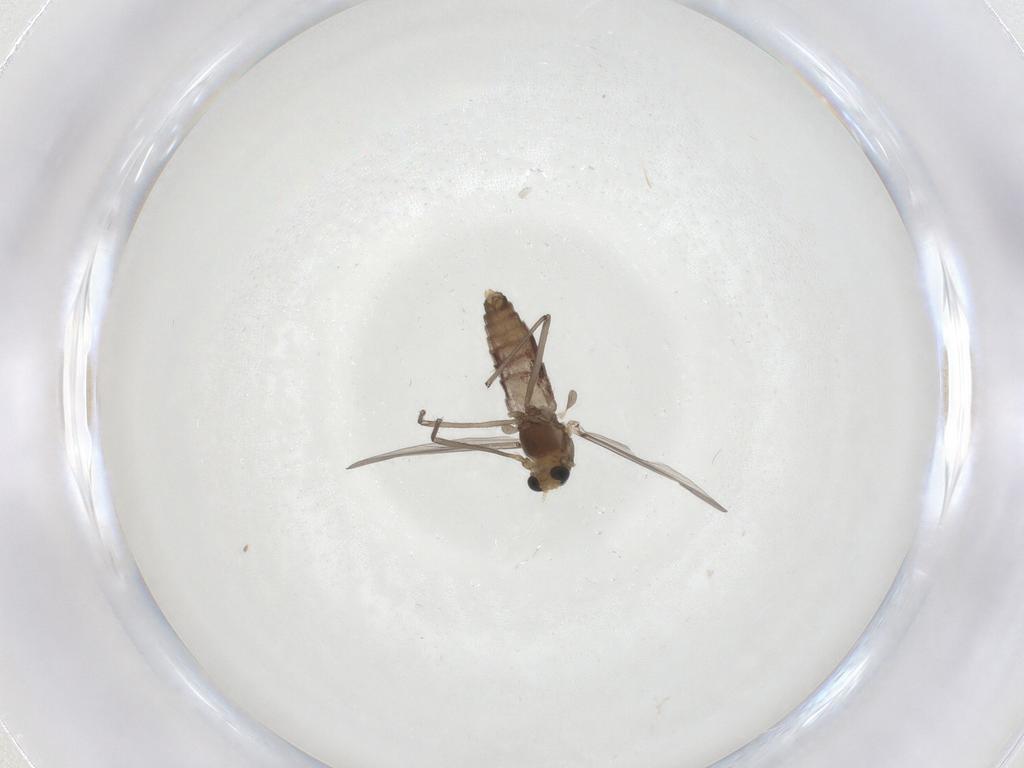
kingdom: Animalia
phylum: Arthropoda
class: Insecta
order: Diptera
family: Chironomidae
